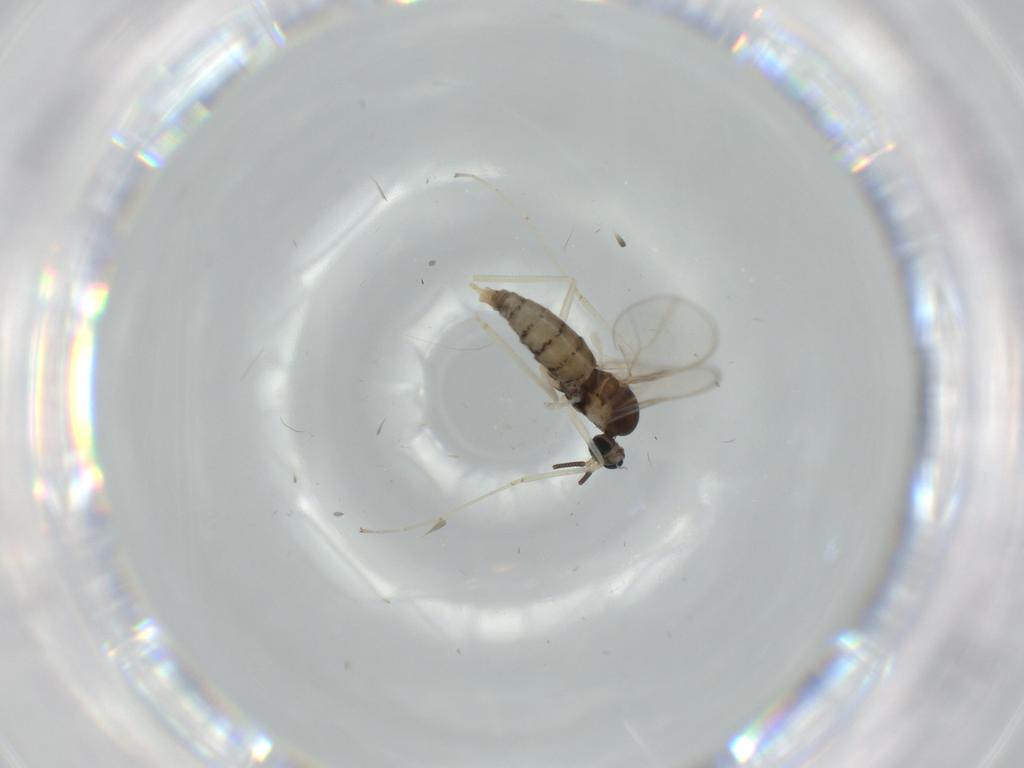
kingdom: Animalia
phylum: Arthropoda
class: Insecta
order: Diptera
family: Cecidomyiidae
